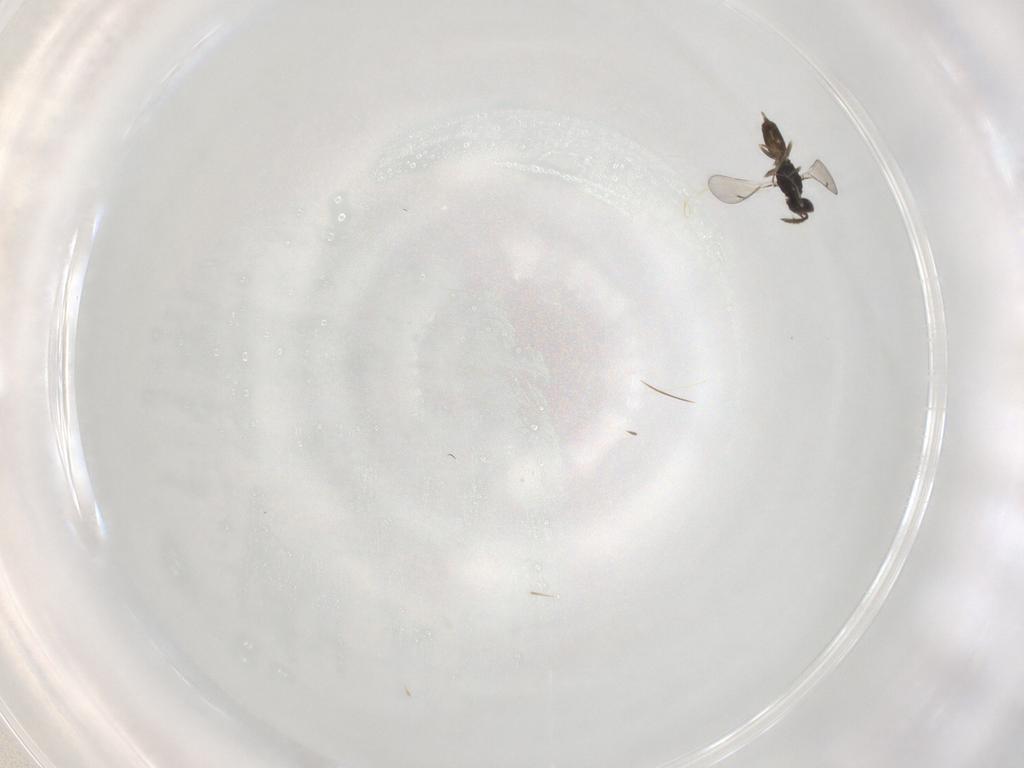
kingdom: Animalia
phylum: Arthropoda
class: Insecta
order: Hymenoptera
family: Eulophidae
